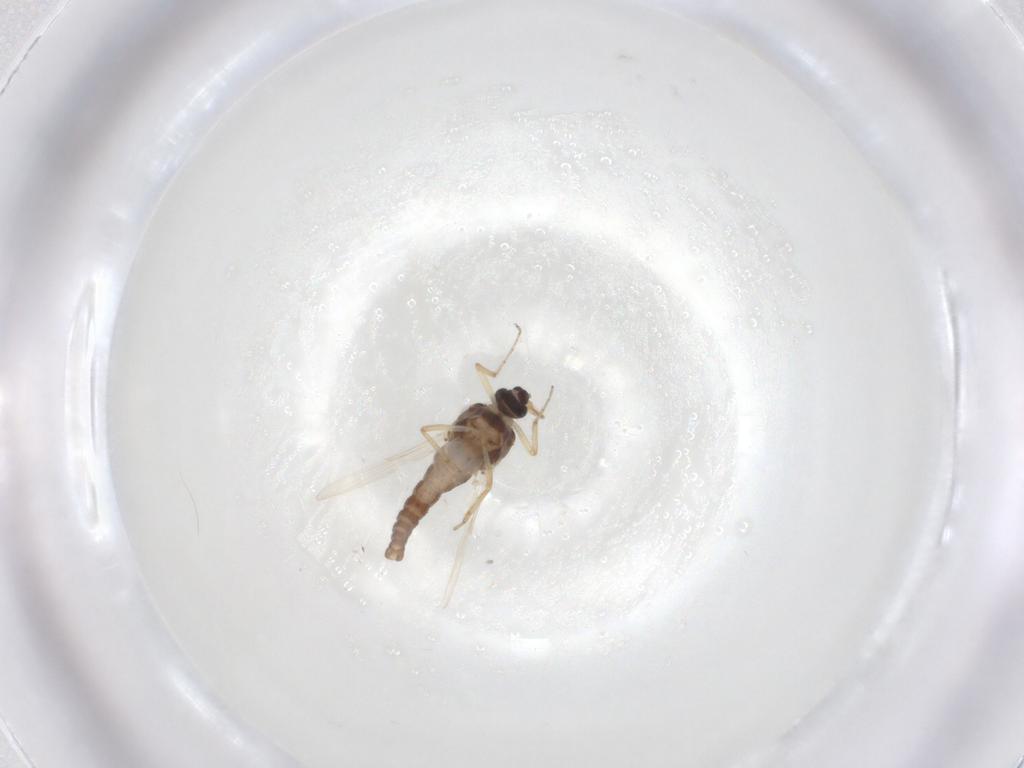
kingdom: Animalia
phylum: Arthropoda
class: Insecta
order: Diptera
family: Ceratopogonidae
